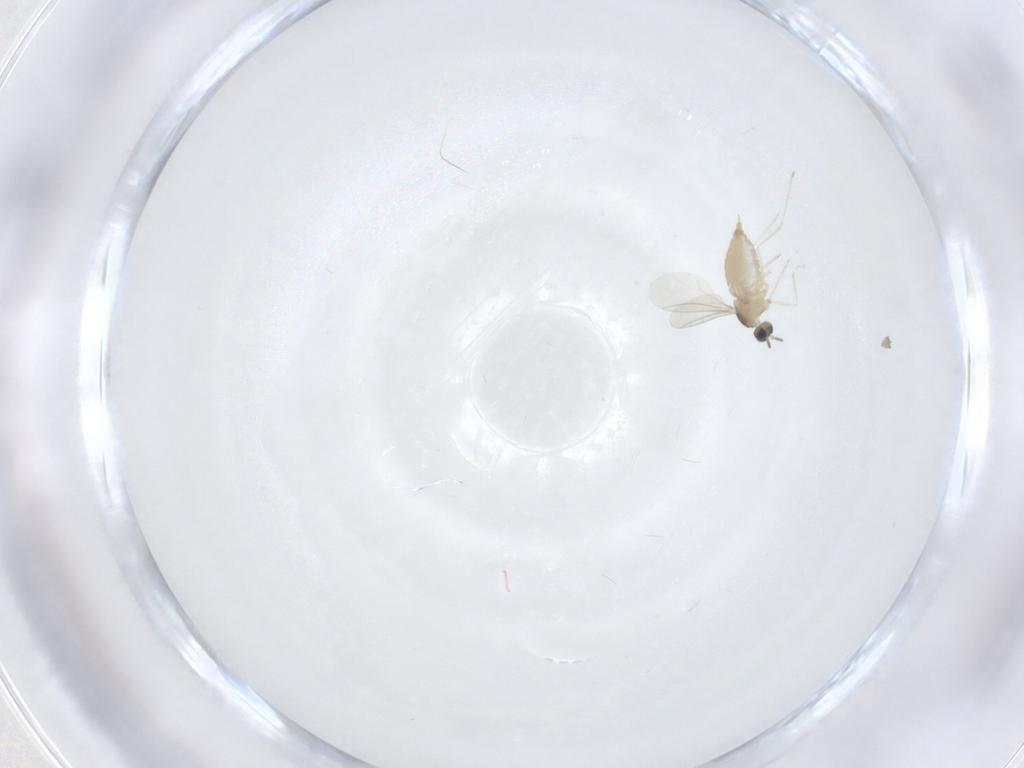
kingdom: Animalia
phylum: Arthropoda
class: Insecta
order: Diptera
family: Cecidomyiidae
